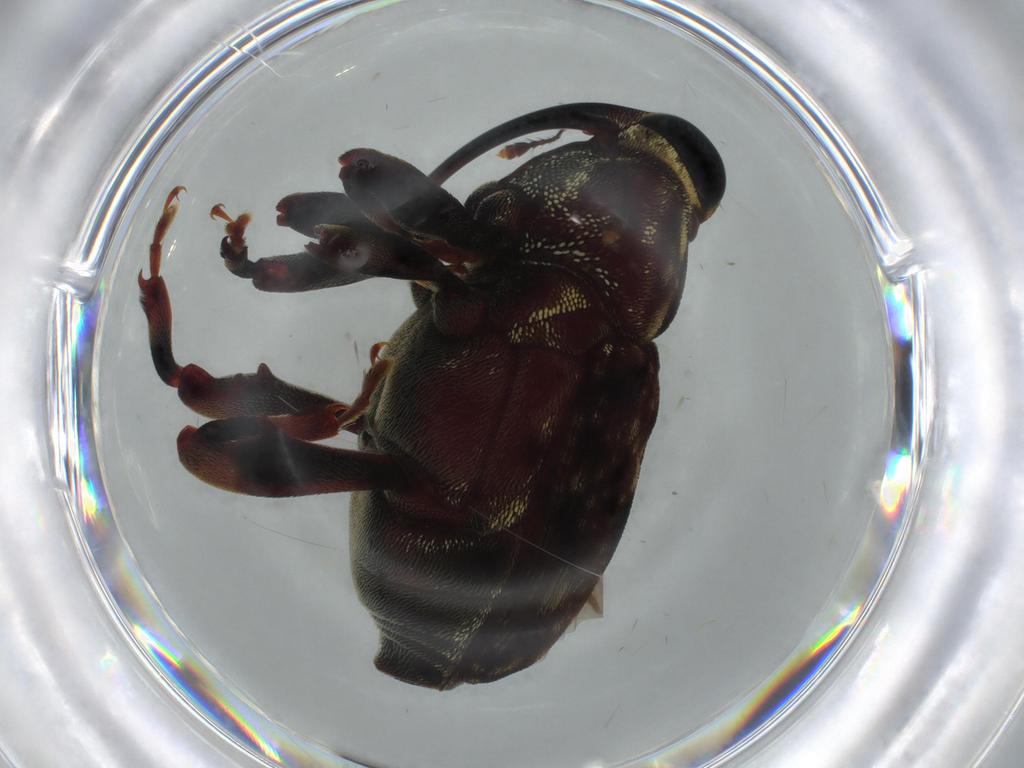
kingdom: Animalia
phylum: Arthropoda
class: Insecta
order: Coleoptera
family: Curculionidae
